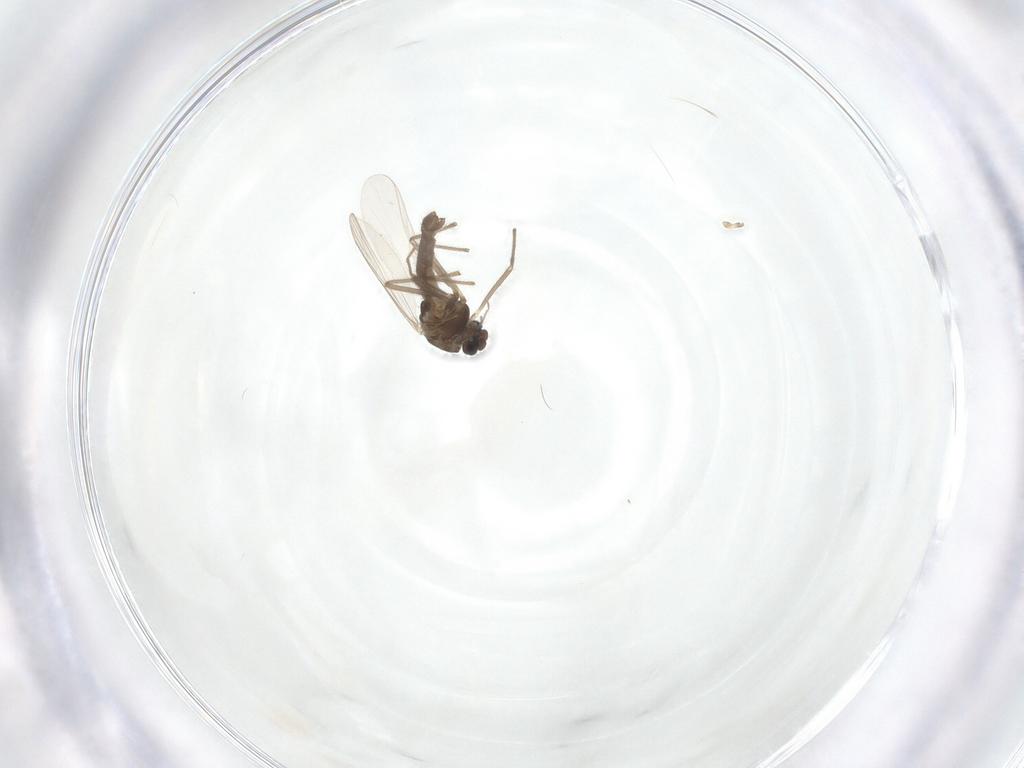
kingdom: Animalia
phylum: Arthropoda
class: Insecta
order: Diptera
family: Chironomidae
